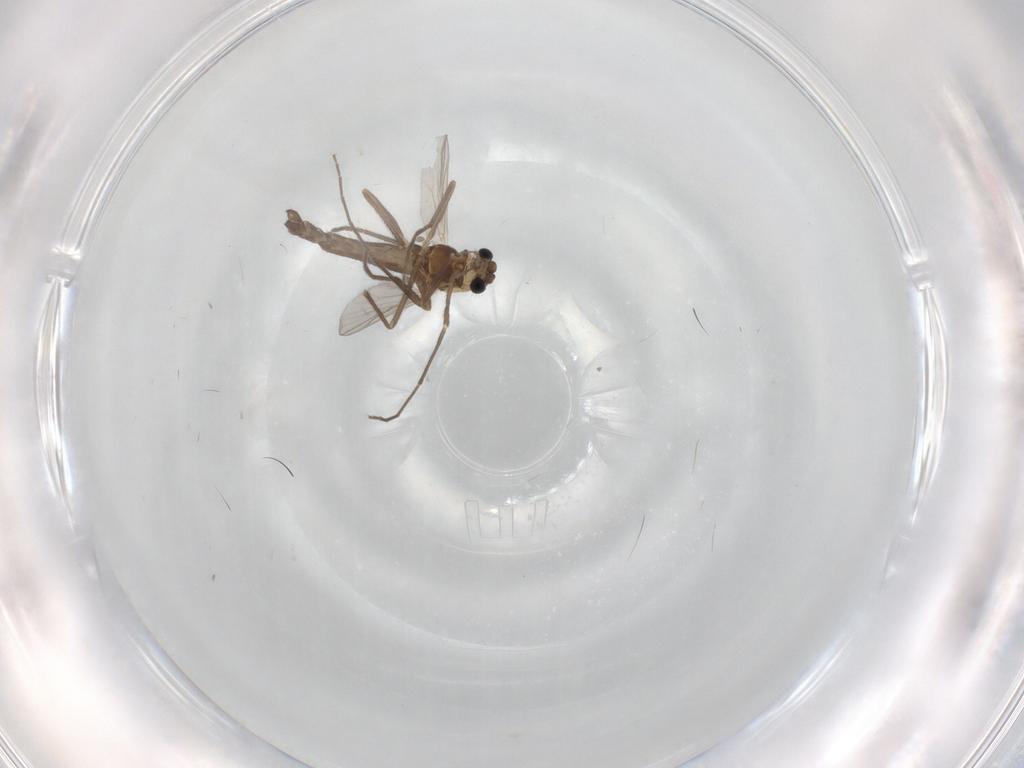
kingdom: Animalia
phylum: Arthropoda
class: Insecta
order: Diptera
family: Chironomidae
